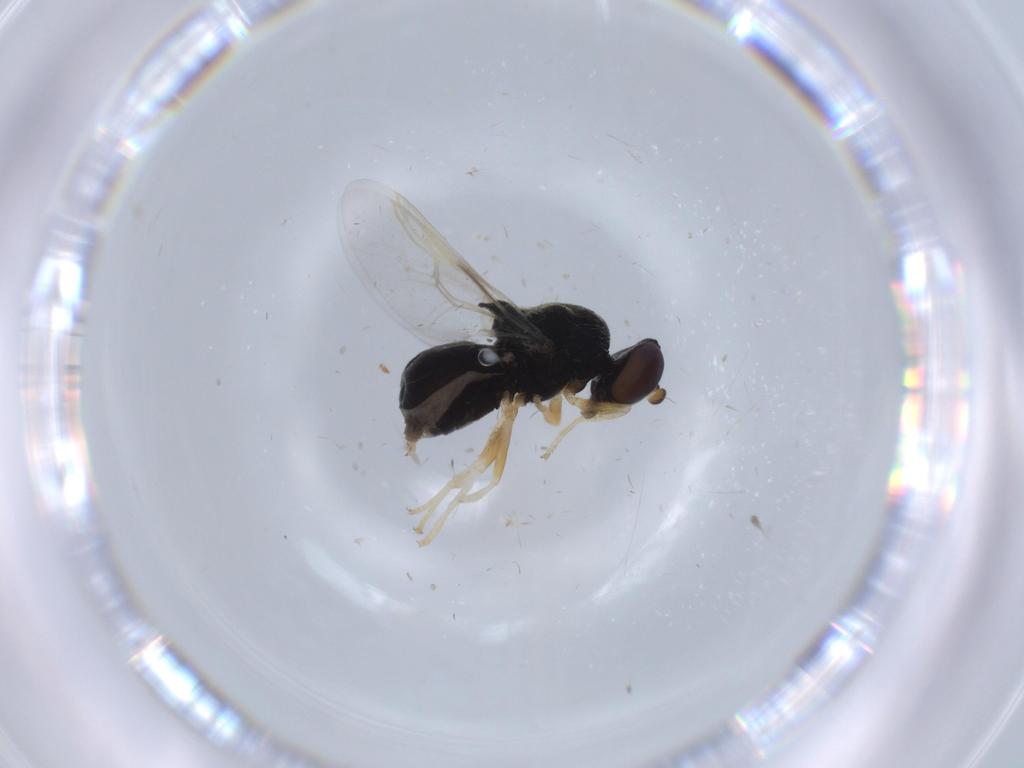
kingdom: Animalia
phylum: Arthropoda
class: Insecta
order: Diptera
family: Stratiomyidae
